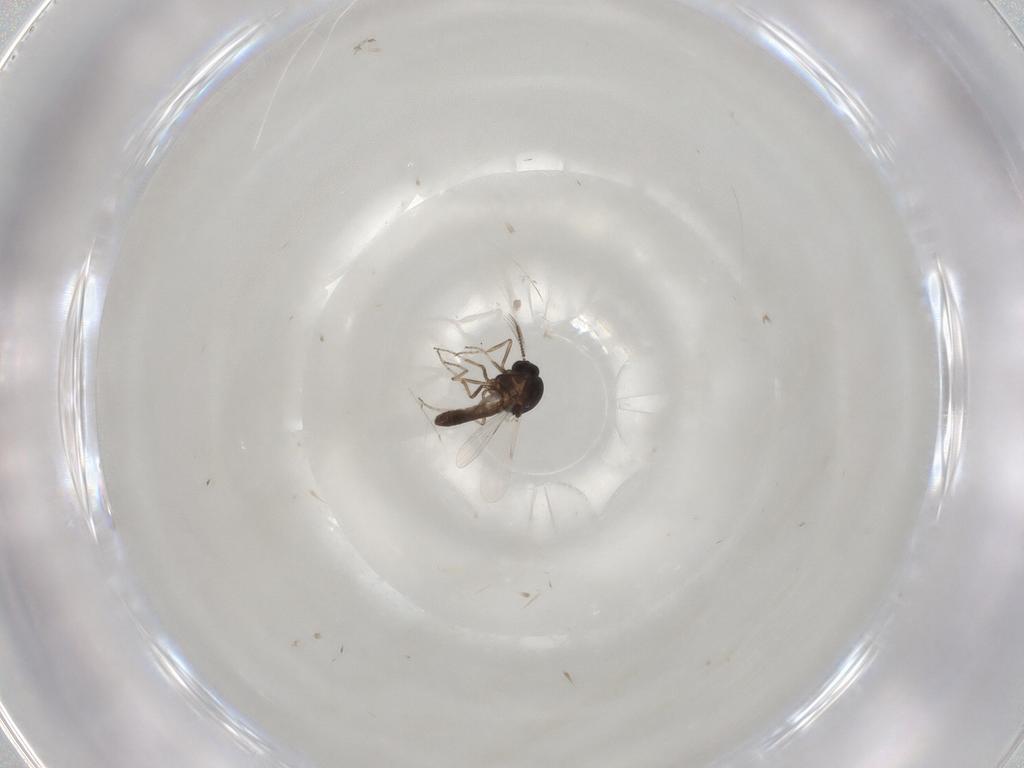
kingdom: Animalia
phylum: Arthropoda
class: Insecta
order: Diptera
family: Ceratopogonidae
